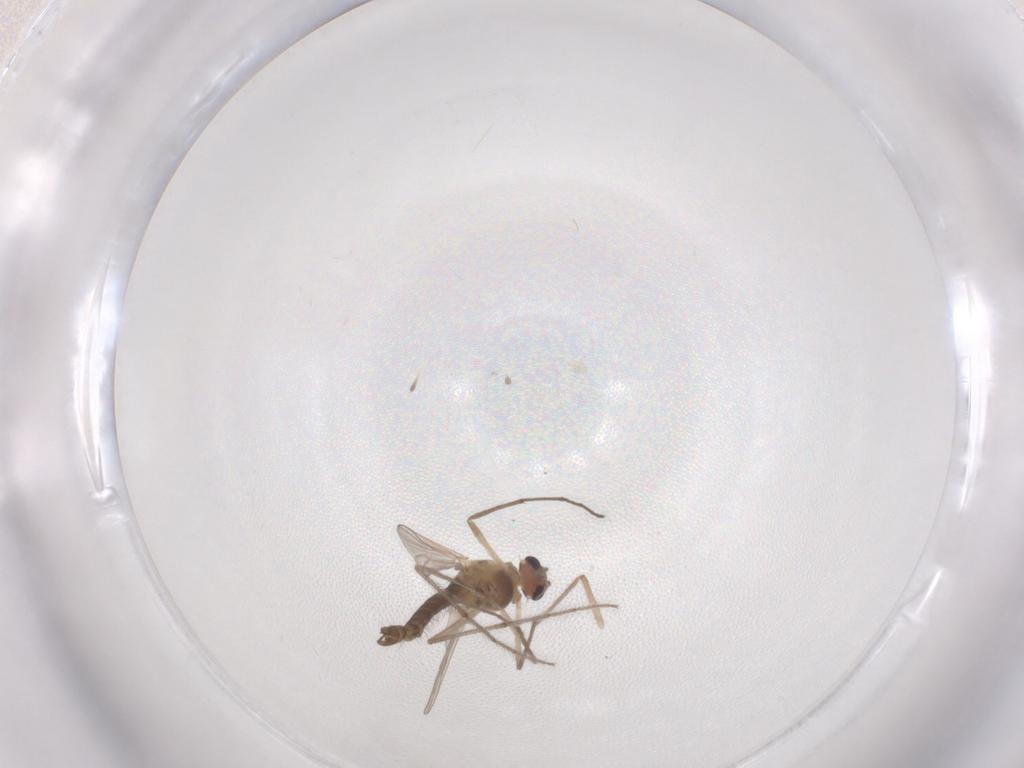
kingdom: Animalia
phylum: Arthropoda
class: Insecta
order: Diptera
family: Chironomidae
